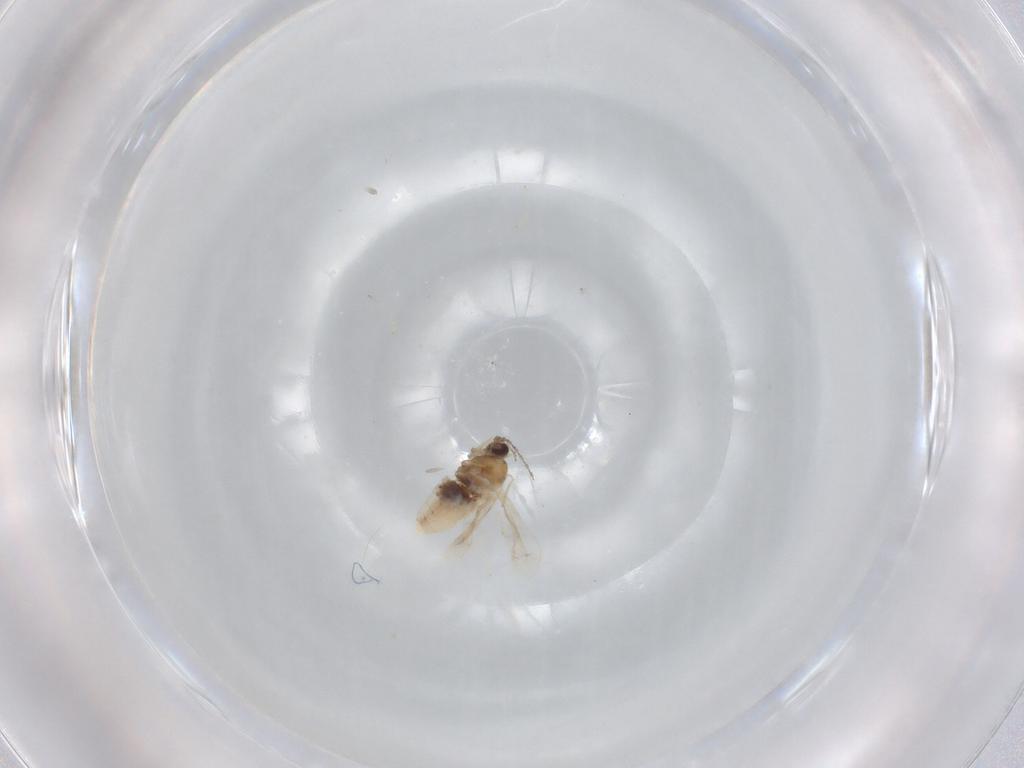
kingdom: Animalia
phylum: Arthropoda
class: Insecta
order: Diptera
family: Cecidomyiidae
